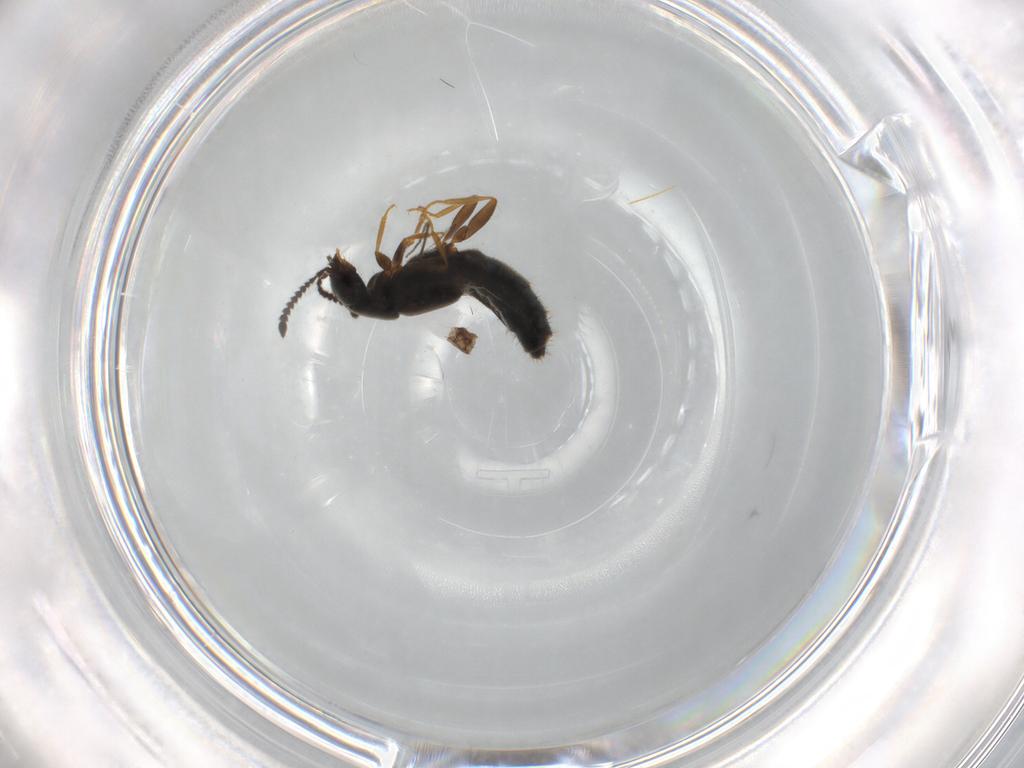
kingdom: Animalia
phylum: Arthropoda
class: Insecta
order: Coleoptera
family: Staphylinidae
